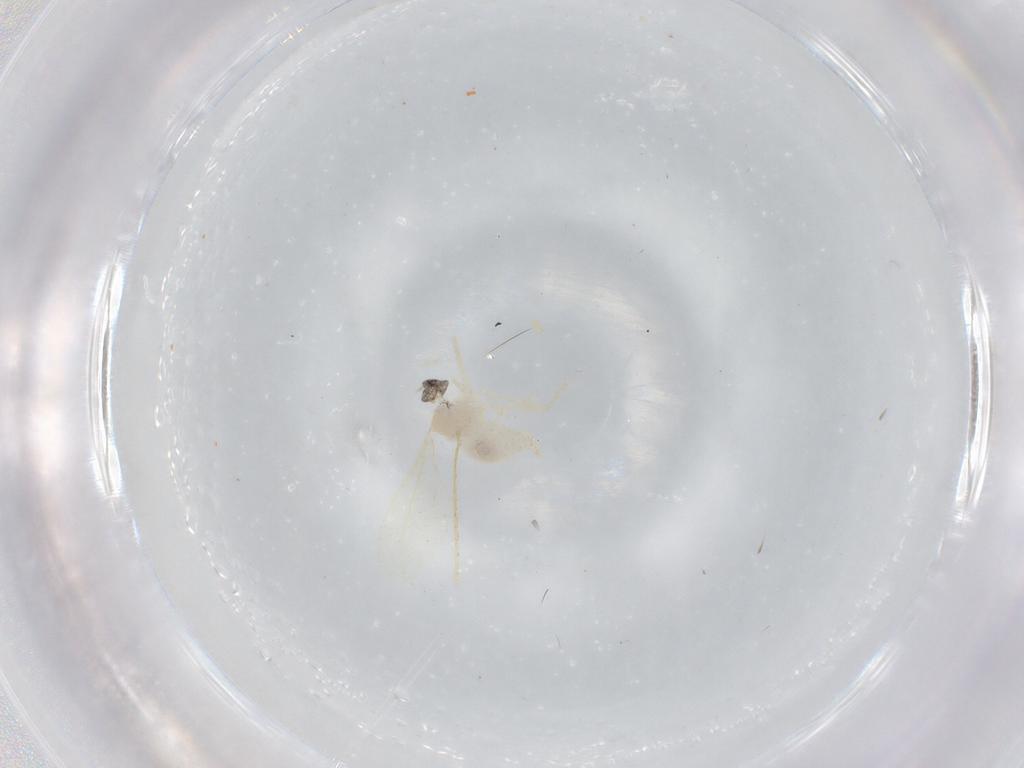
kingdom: Animalia
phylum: Arthropoda
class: Insecta
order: Diptera
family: Cecidomyiidae
